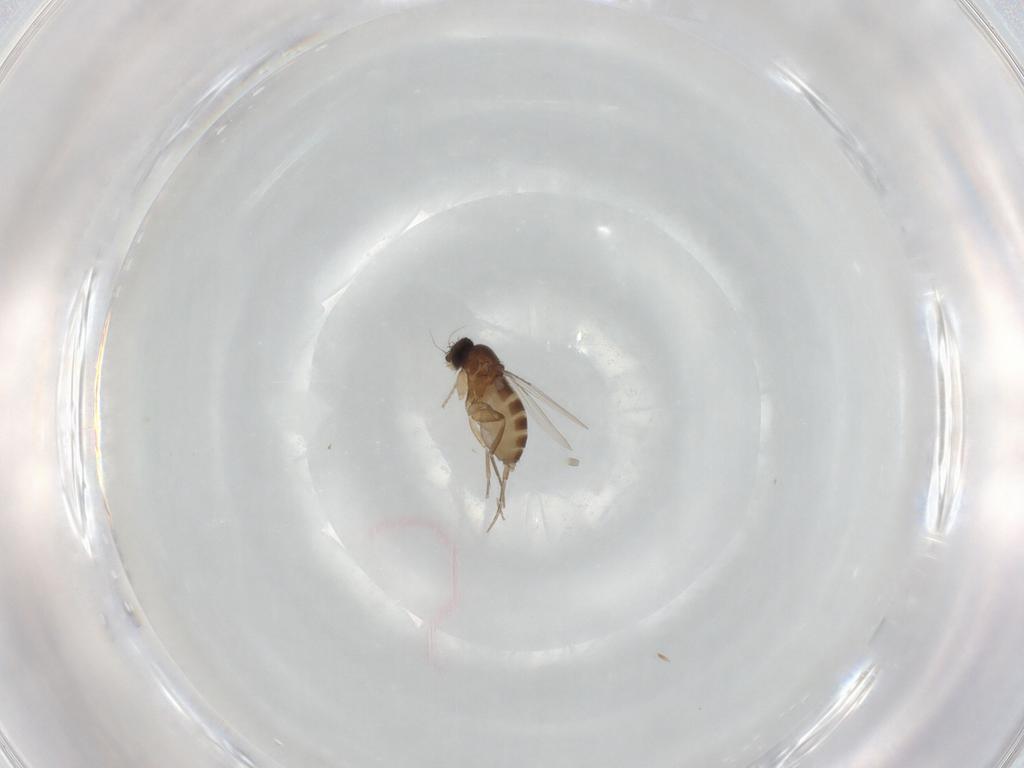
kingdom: Animalia
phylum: Arthropoda
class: Insecta
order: Diptera
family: Phoridae
